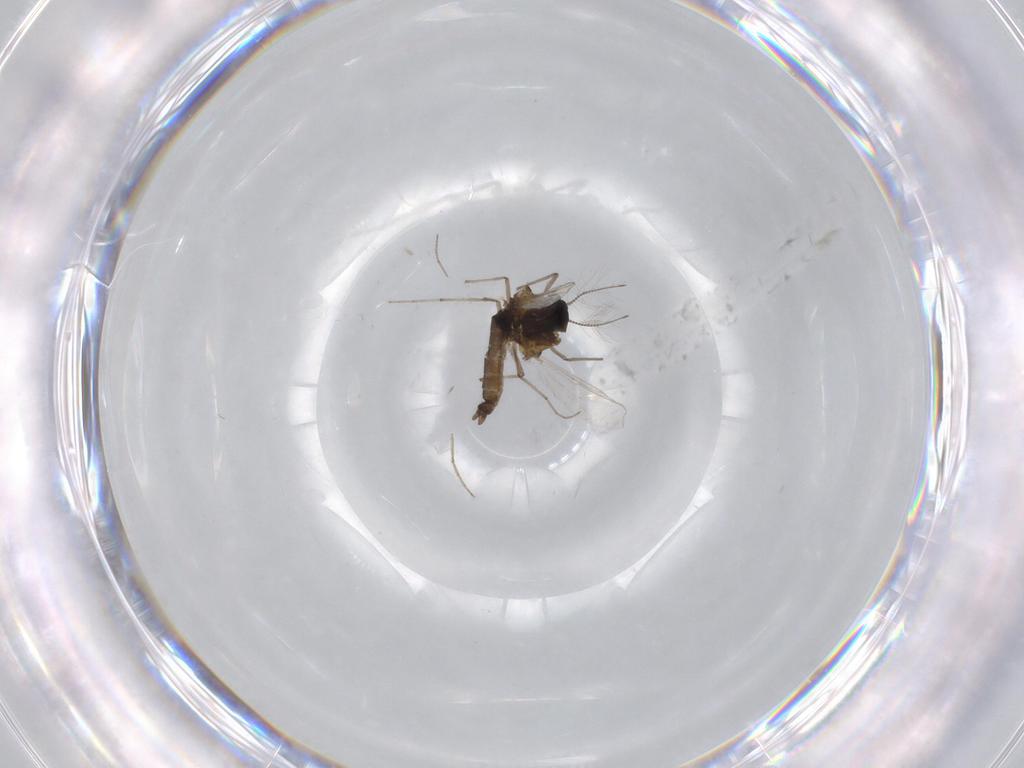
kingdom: Animalia
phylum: Arthropoda
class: Insecta
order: Diptera
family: Chironomidae
